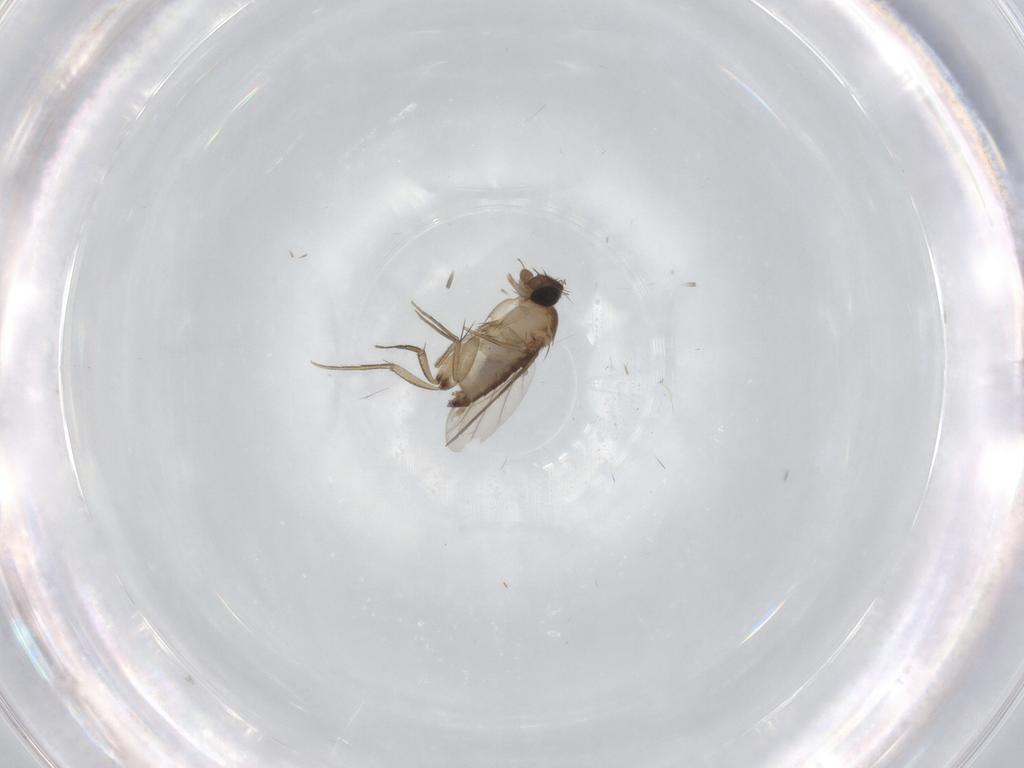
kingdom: Animalia
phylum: Arthropoda
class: Insecta
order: Diptera
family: Phoridae
